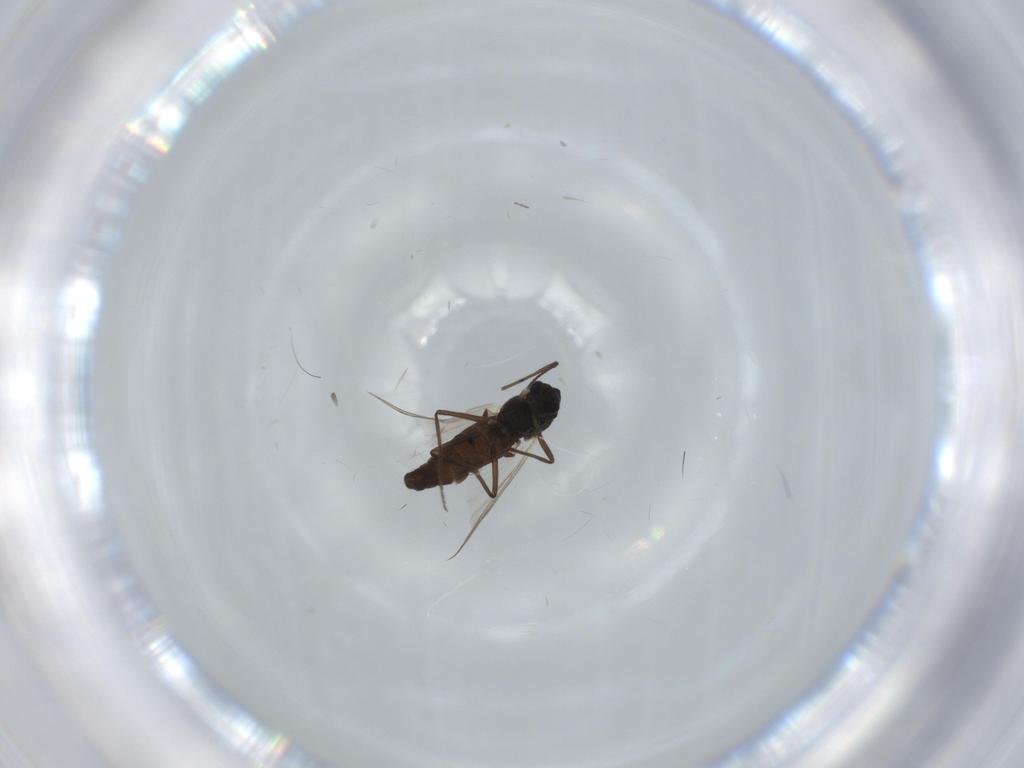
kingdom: Animalia
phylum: Arthropoda
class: Insecta
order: Diptera
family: Chironomidae
